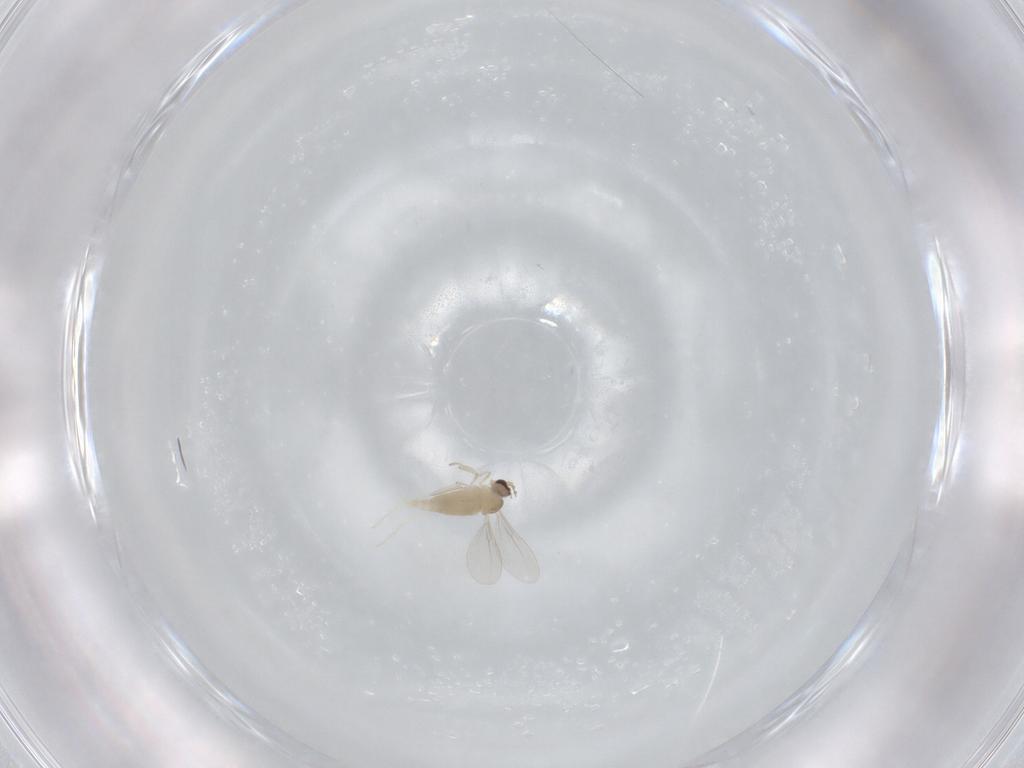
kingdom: Animalia
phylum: Arthropoda
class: Insecta
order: Diptera
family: Cecidomyiidae
